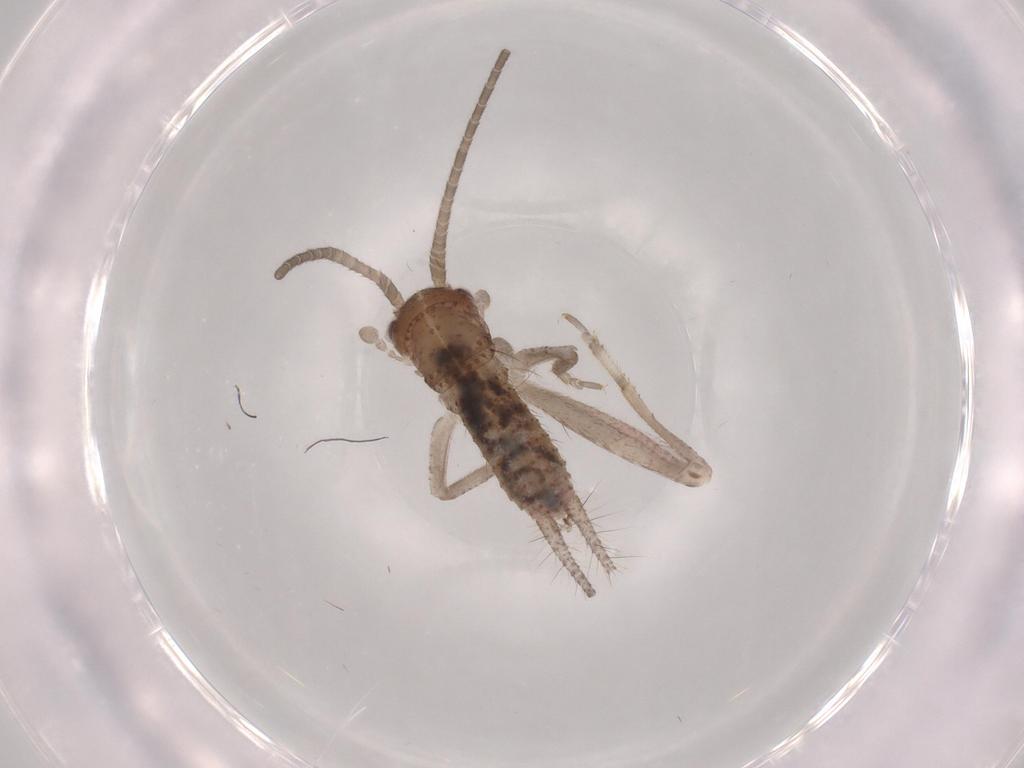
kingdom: Animalia
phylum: Arthropoda
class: Insecta
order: Orthoptera
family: Gryllidae
